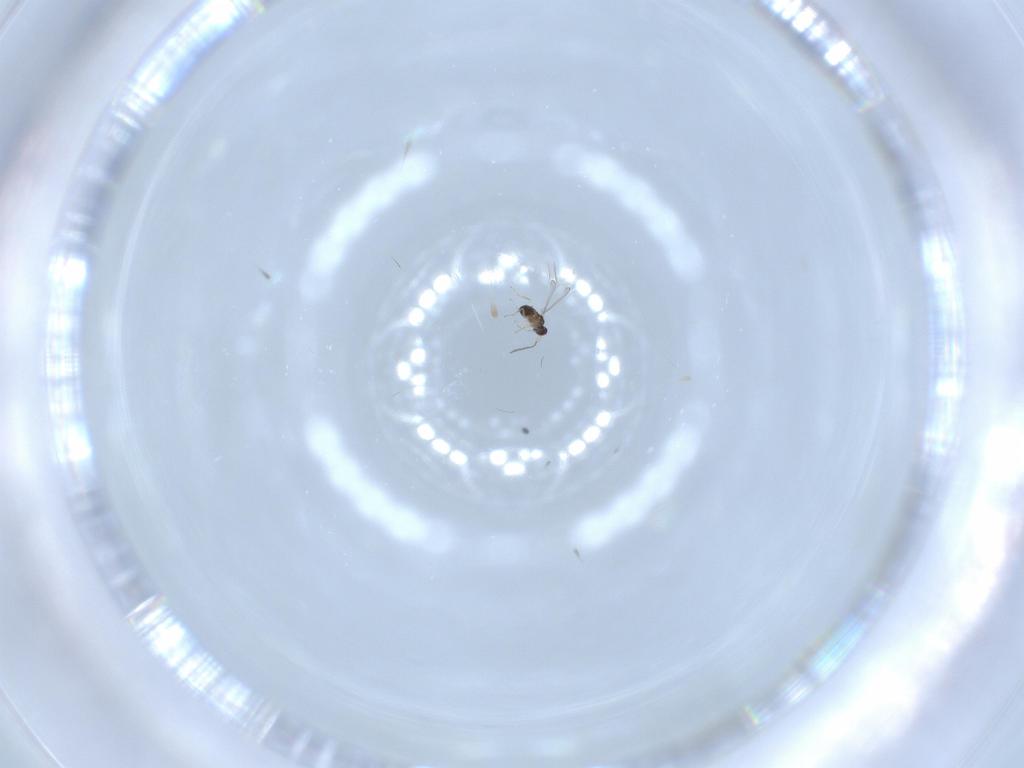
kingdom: Animalia
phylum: Arthropoda
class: Insecta
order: Hymenoptera
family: Mymaridae
